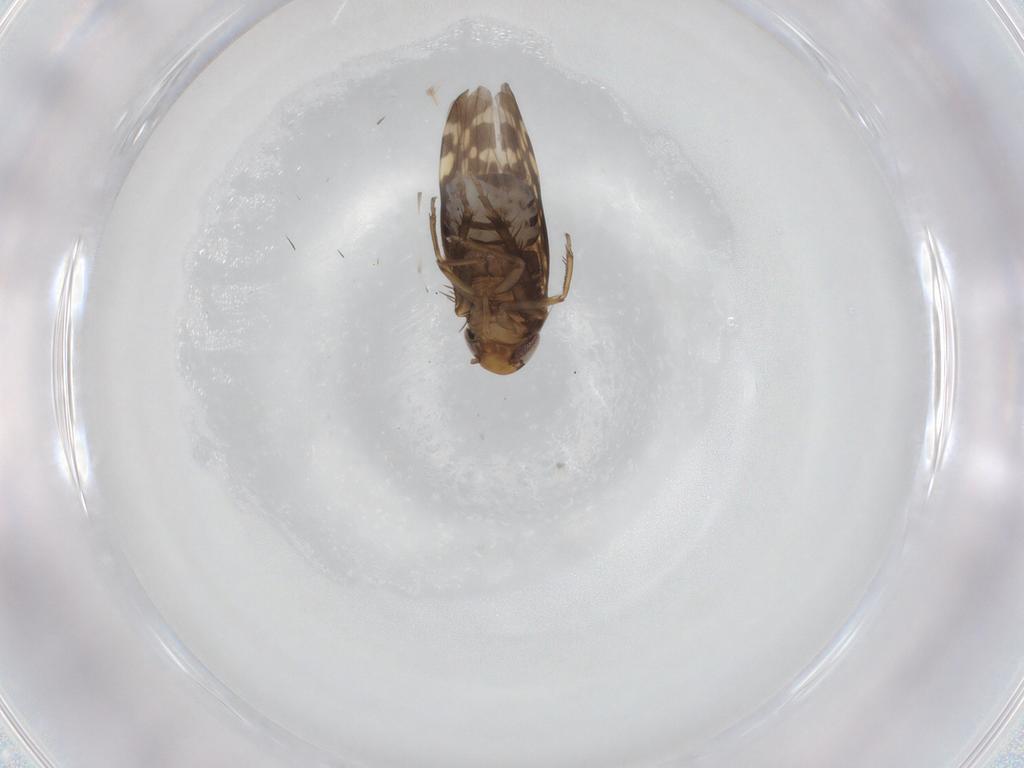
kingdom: Animalia
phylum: Arthropoda
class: Insecta
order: Hemiptera
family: Cicadellidae
